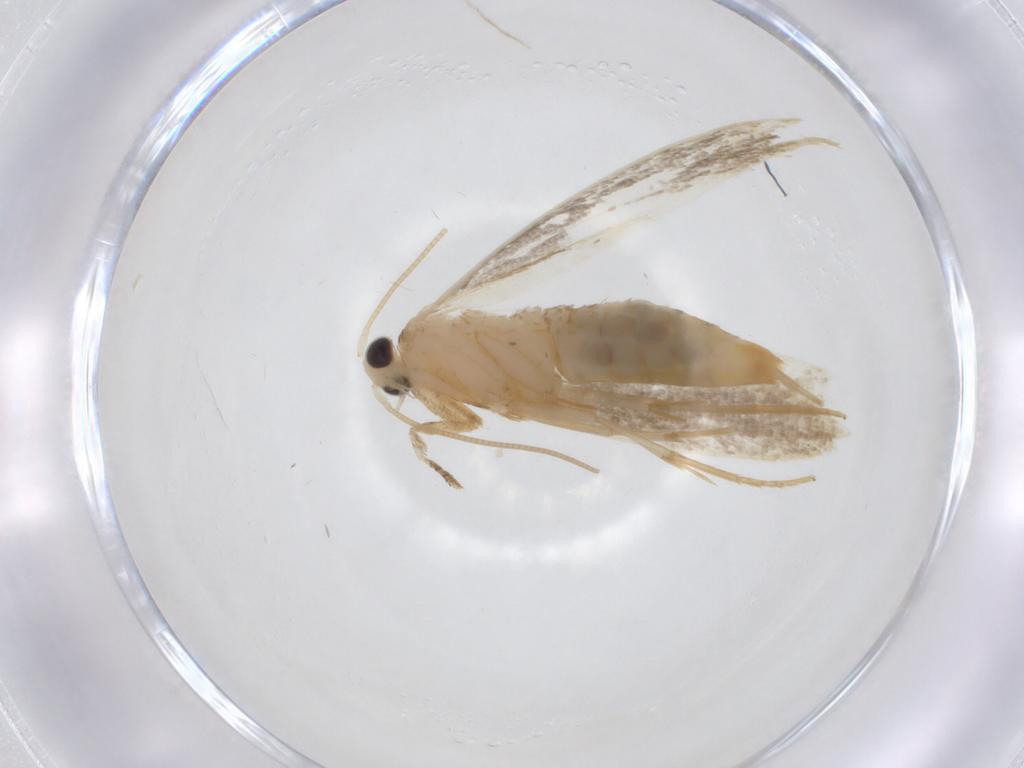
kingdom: Animalia
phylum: Arthropoda
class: Insecta
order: Lepidoptera
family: Tineidae
